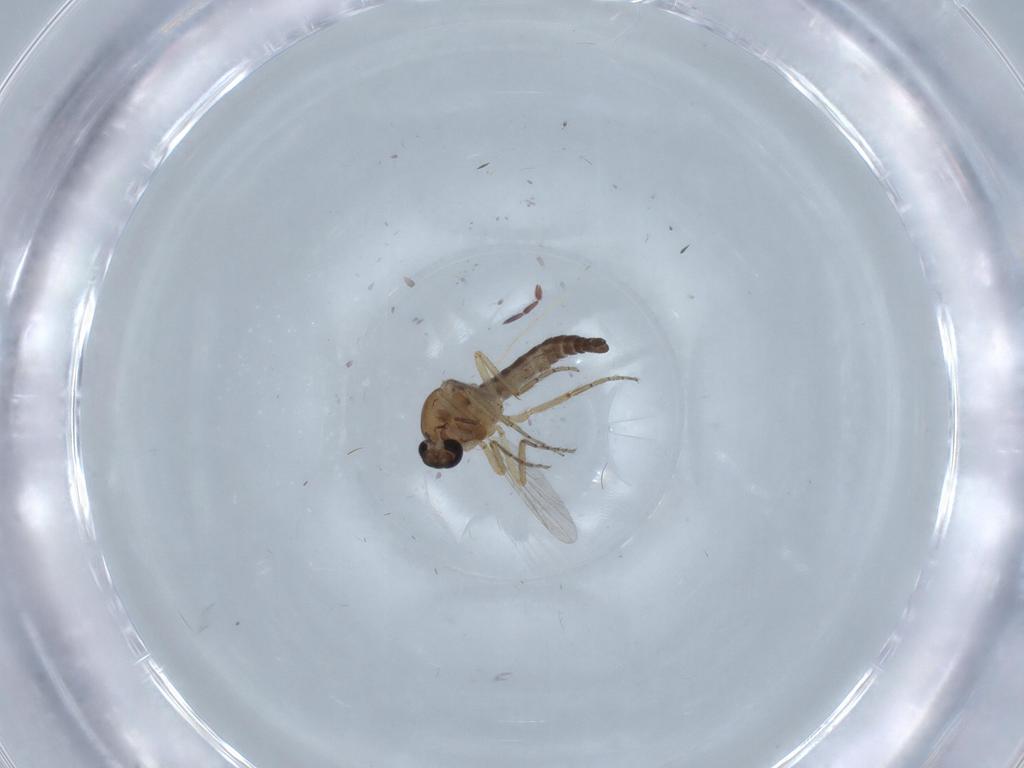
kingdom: Animalia
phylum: Arthropoda
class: Insecta
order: Diptera
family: Ceratopogonidae
